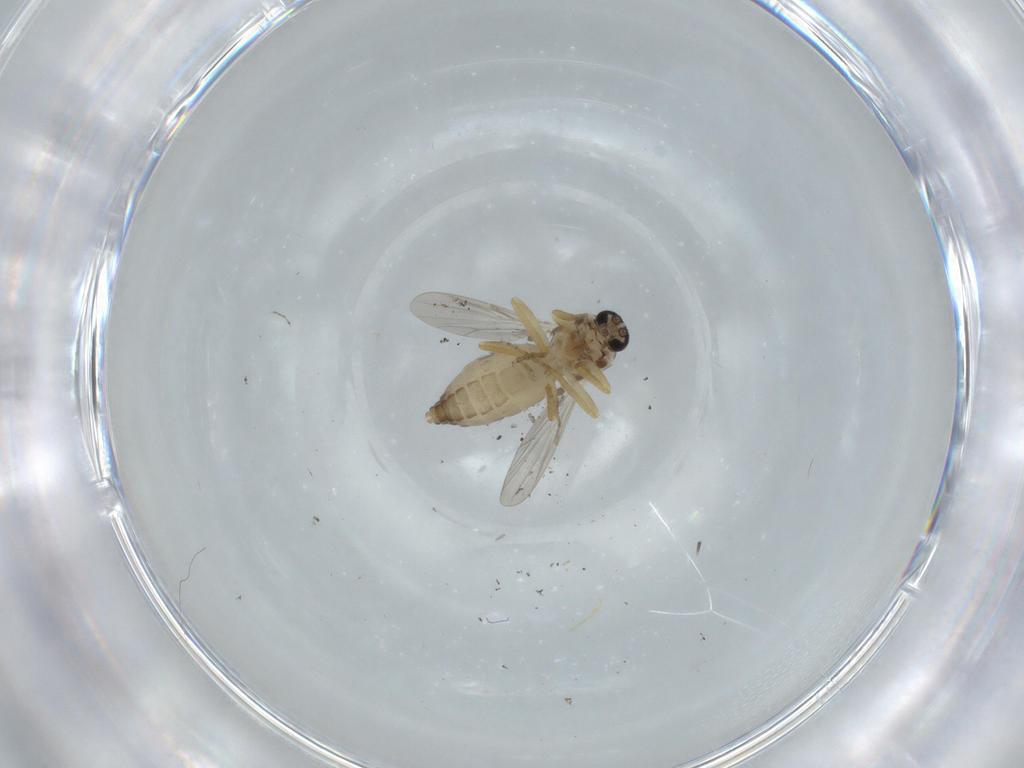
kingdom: Animalia
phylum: Arthropoda
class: Insecta
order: Diptera
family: Ceratopogonidae
